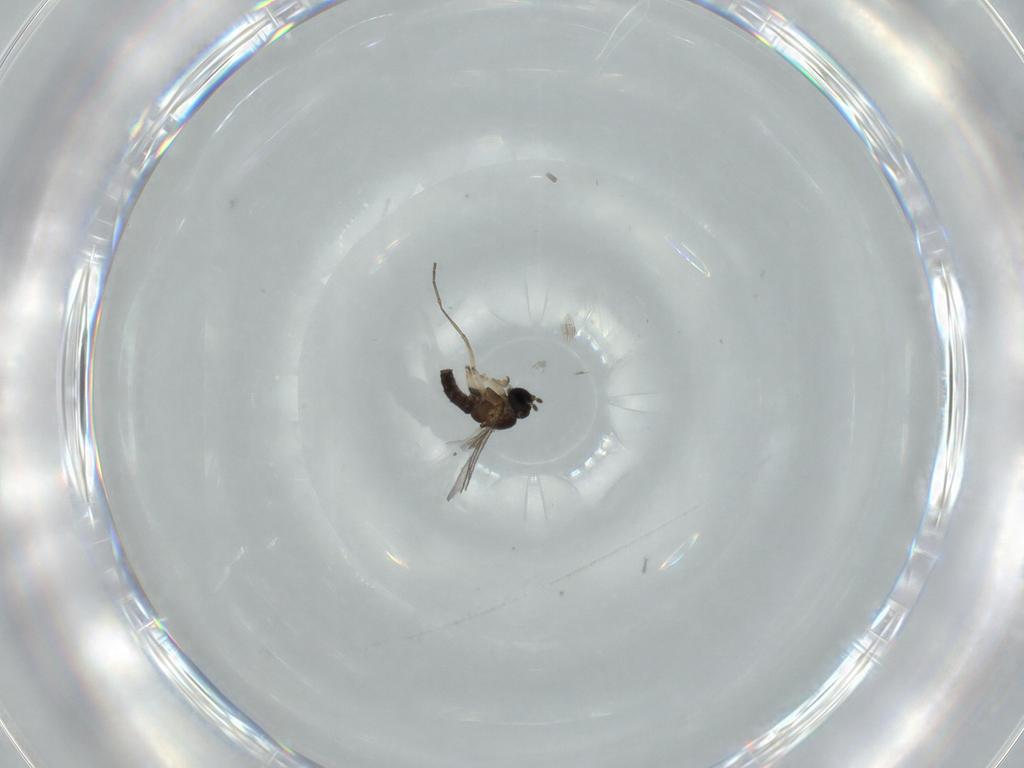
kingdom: Animalia
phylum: Arthropoda
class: Insecta
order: Diptera
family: Sciaridae
